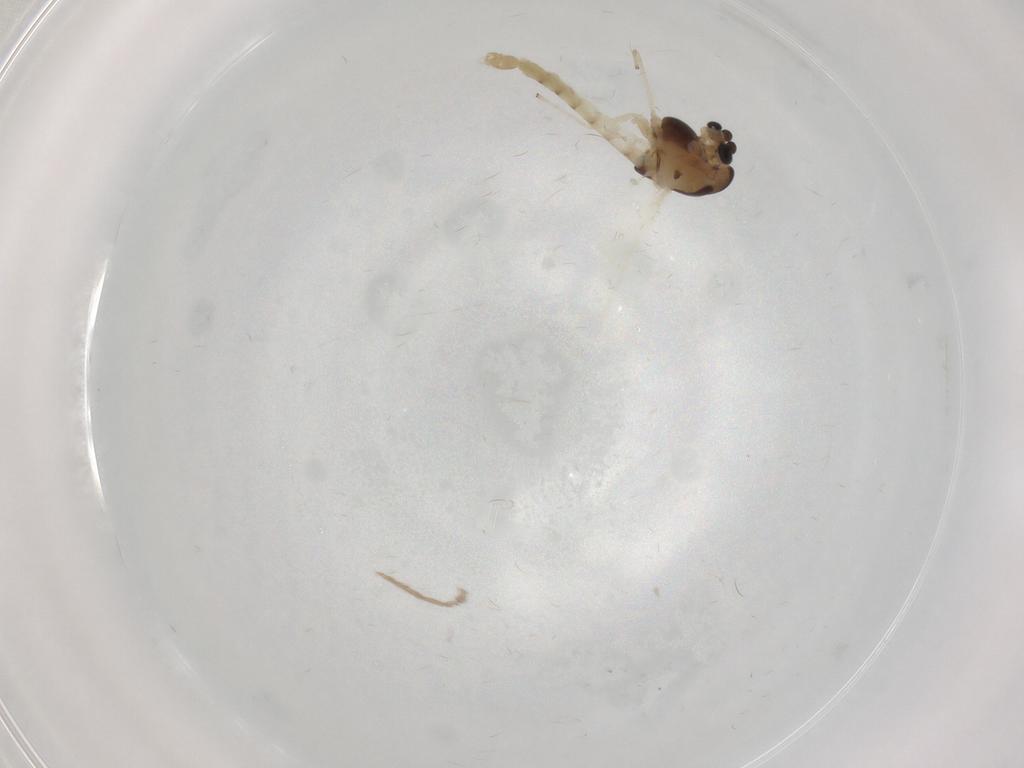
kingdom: Animalia
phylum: Arthropoda
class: Insecta
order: Diptera
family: Chironomidae
